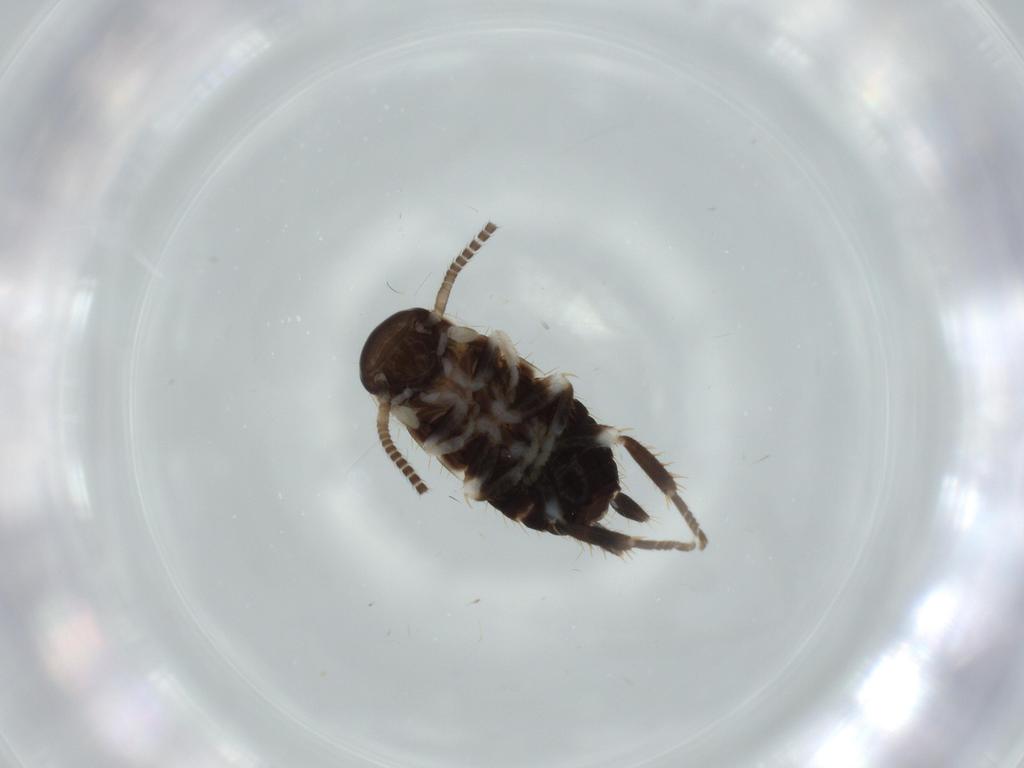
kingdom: Animalia
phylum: Arthropoda
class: Insecta
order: Blattodea
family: Ectobiidae
